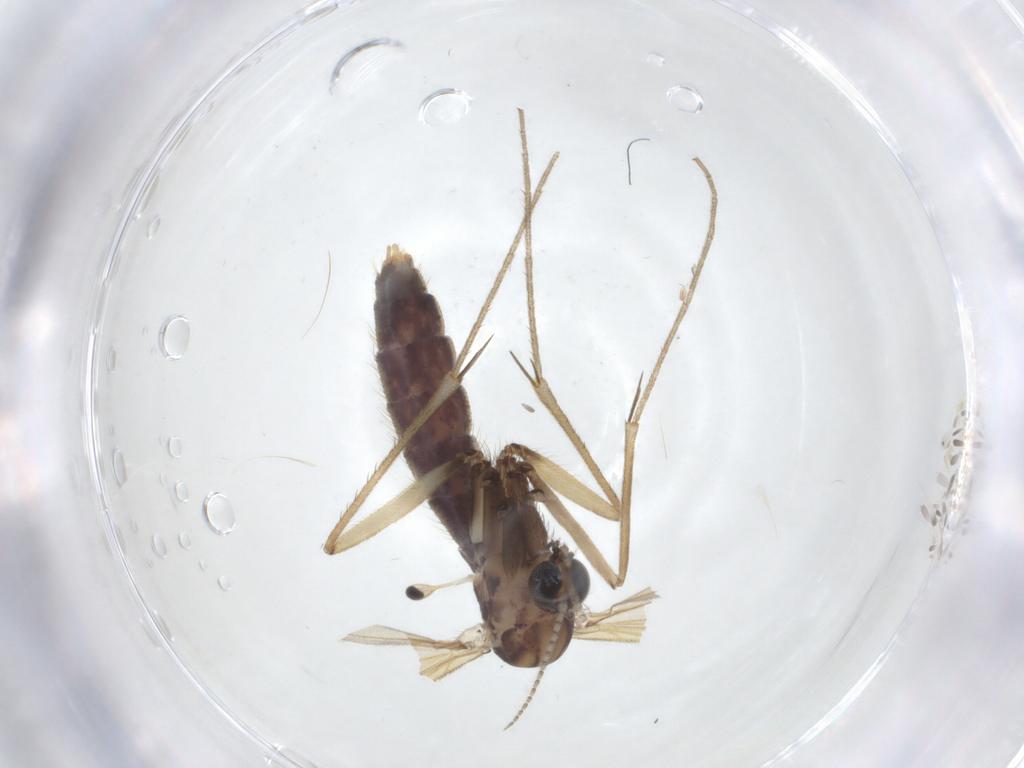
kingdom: Animalia
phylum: Arthropoda
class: Insecta
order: Diptera
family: Mycetophilidae
